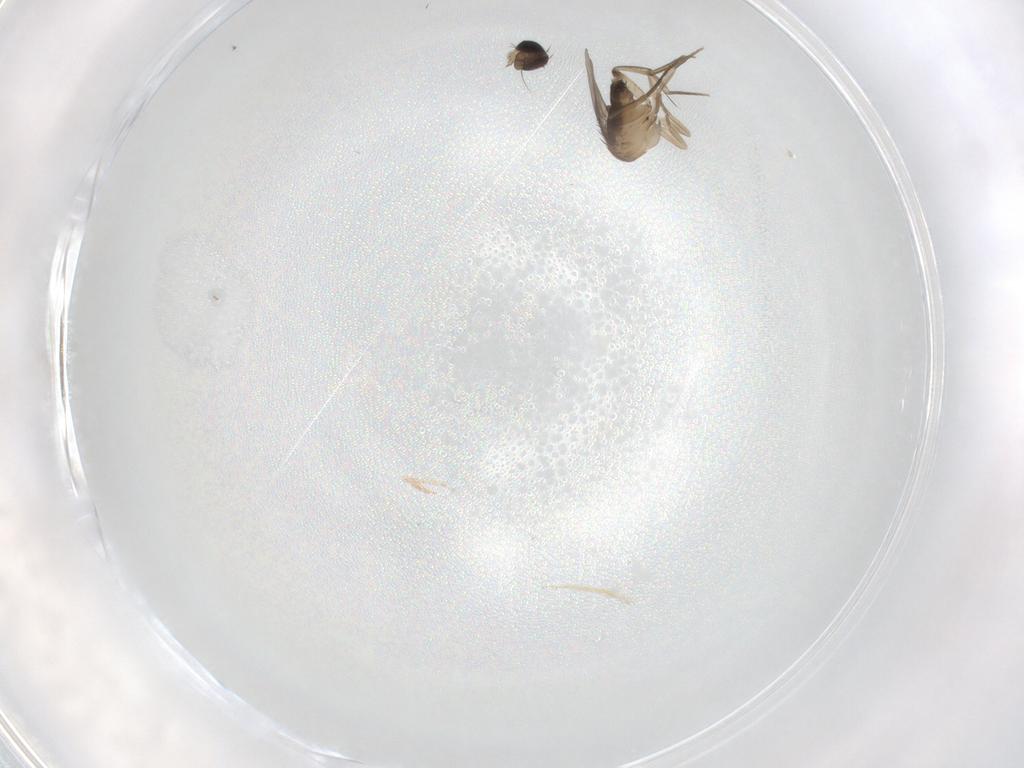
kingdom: Animalia
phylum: Arthropoda
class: Insecta
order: Diptera
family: Phoridae
